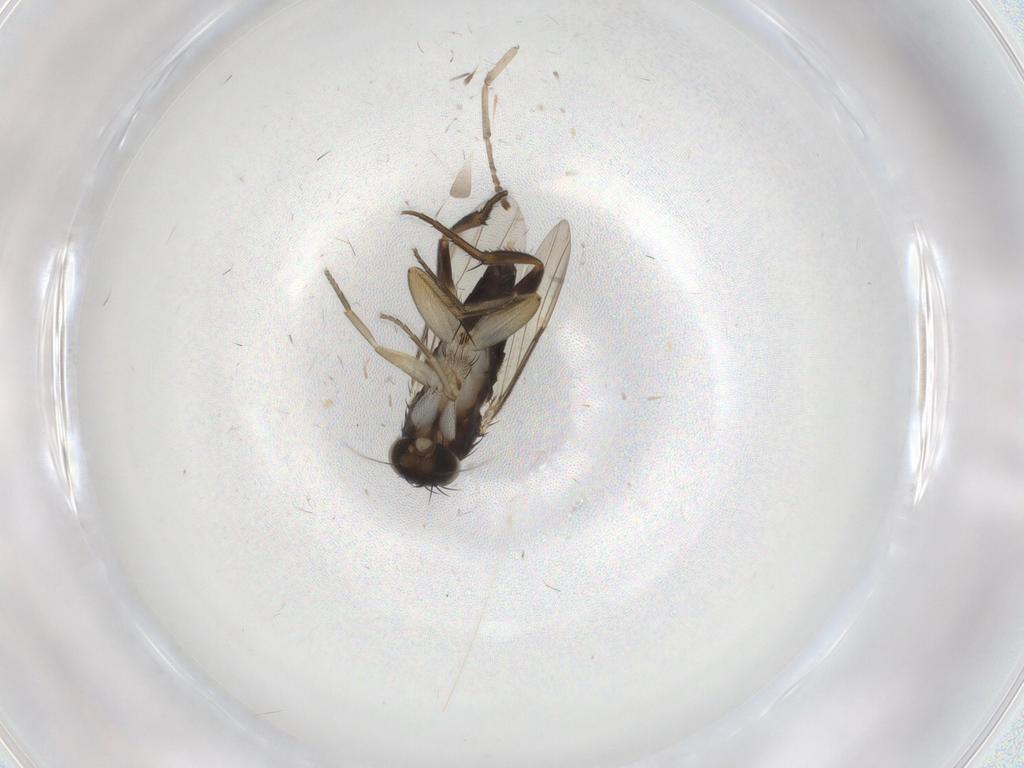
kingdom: Animalia
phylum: Arthropoda
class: Insecta
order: Diptera
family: Phoridae
